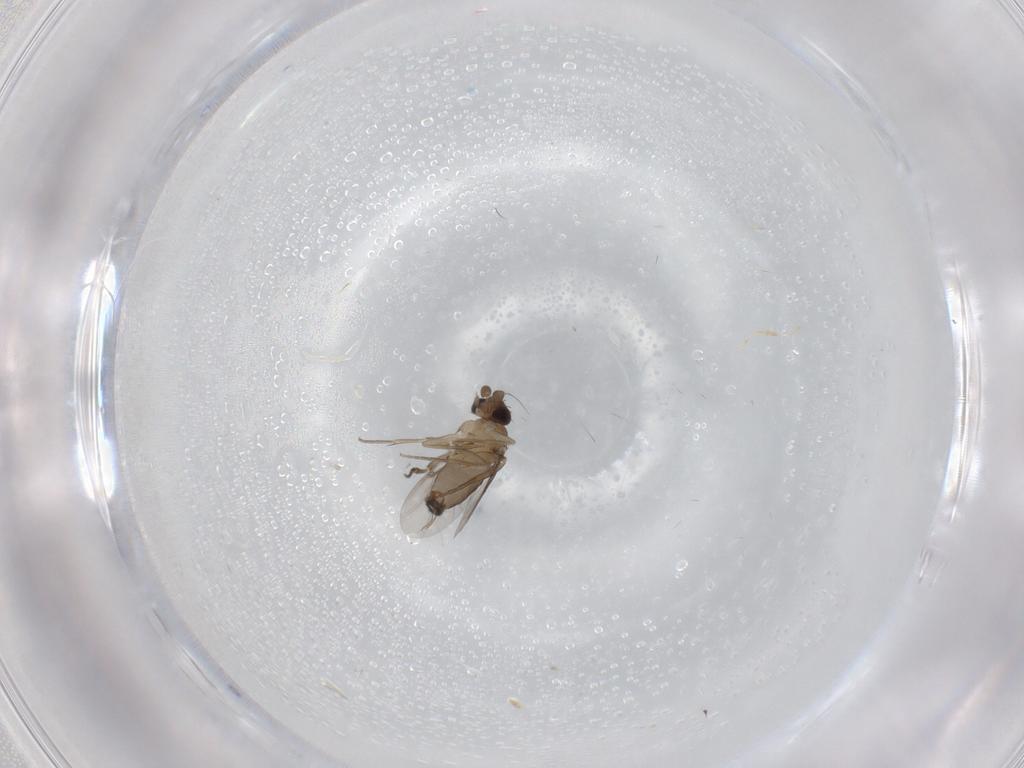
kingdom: Animalia
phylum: Arthropoda
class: Insecta
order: Diptera
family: Phoridae
